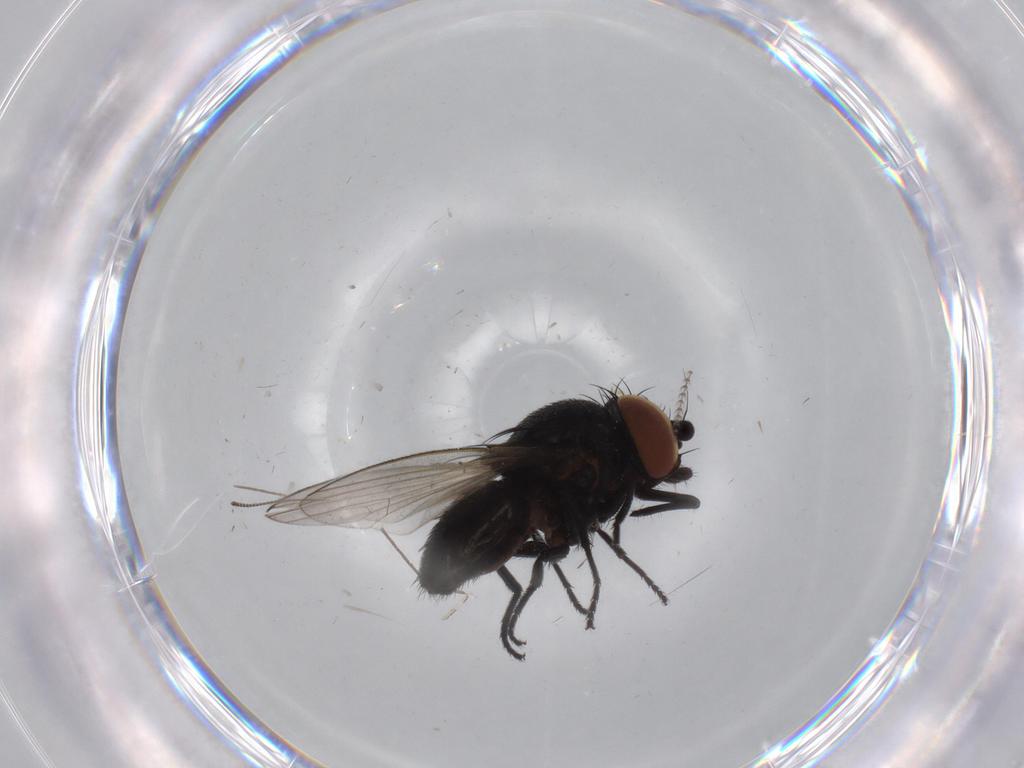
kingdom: Animalia
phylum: Arthropoda
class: Insecta
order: Diptera
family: Milichiidae
